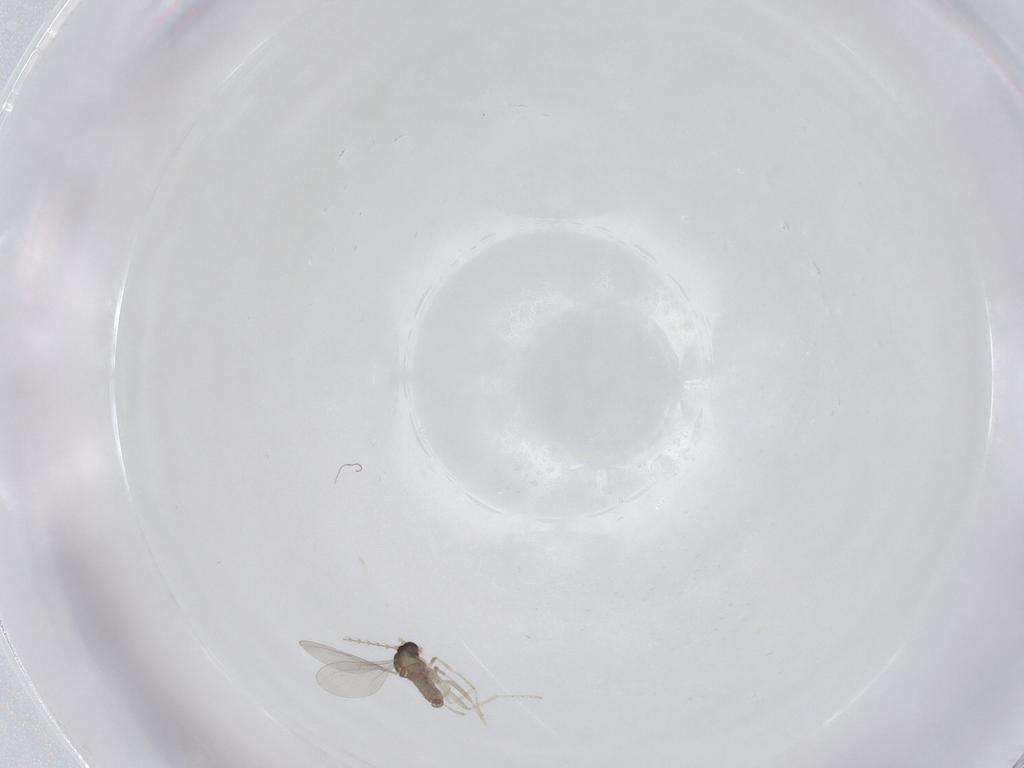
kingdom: Animalia
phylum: Arthropoda
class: Insecta
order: Diptera
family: Cecidomyiidae
